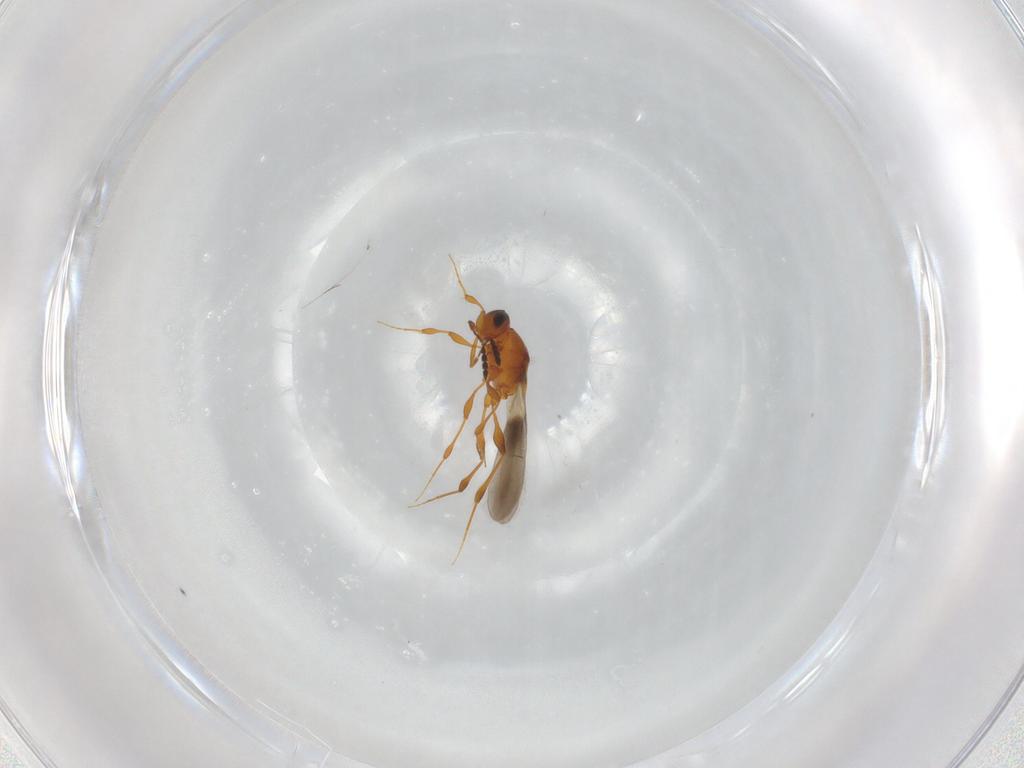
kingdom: Animalia
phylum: Arthropoda
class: Insecta
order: Hymenoptera
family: Platygastridae
